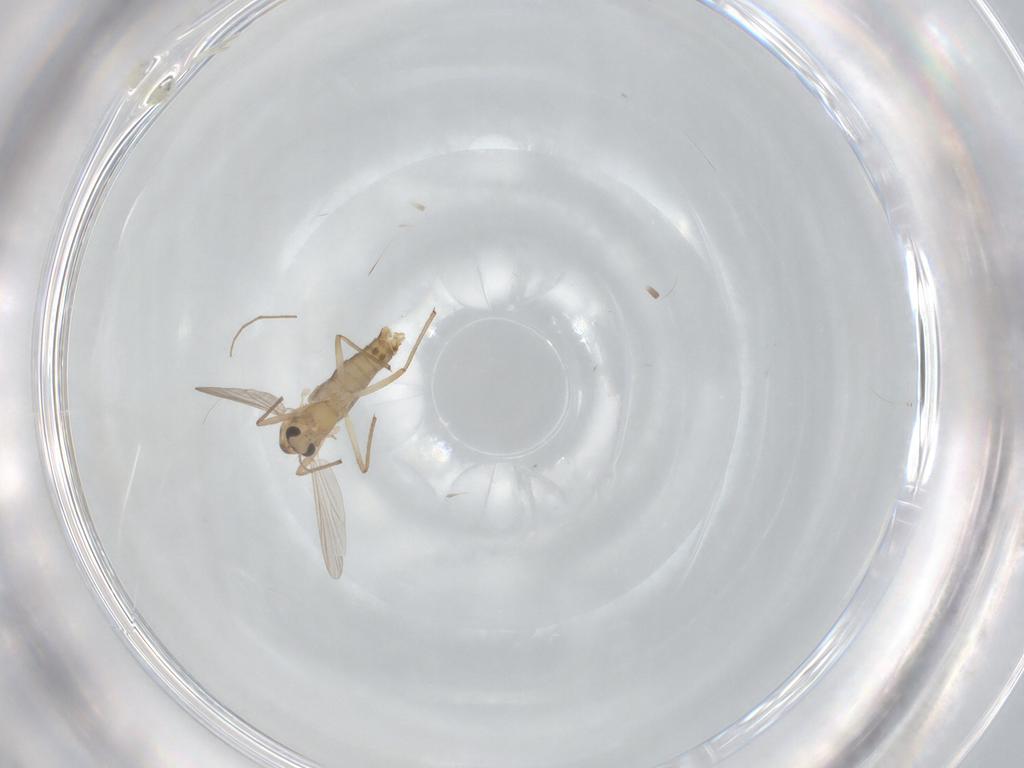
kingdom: Animalia
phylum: Arthropoda
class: Insecta
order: Diptera
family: Chironomidae
